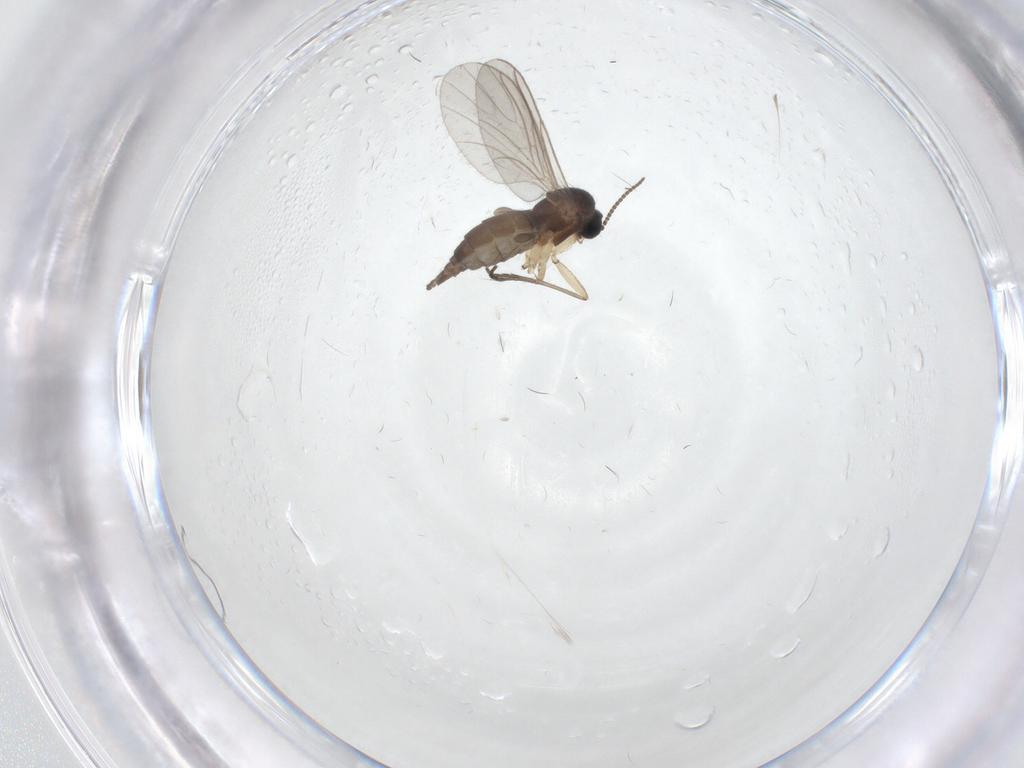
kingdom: Animalia
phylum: Arthropoda
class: Insecta
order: Diptera
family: Sciaridae
